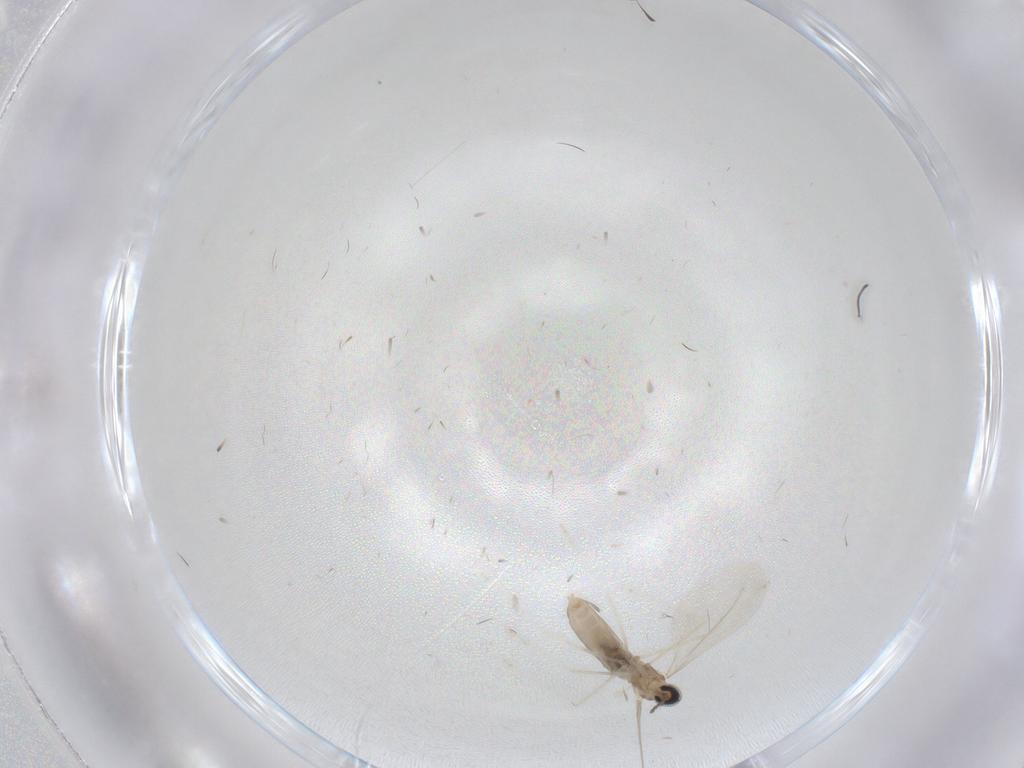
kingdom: Animalia
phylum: Arthropoda
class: Insecta
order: Diptera
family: Cecidomyiidae
